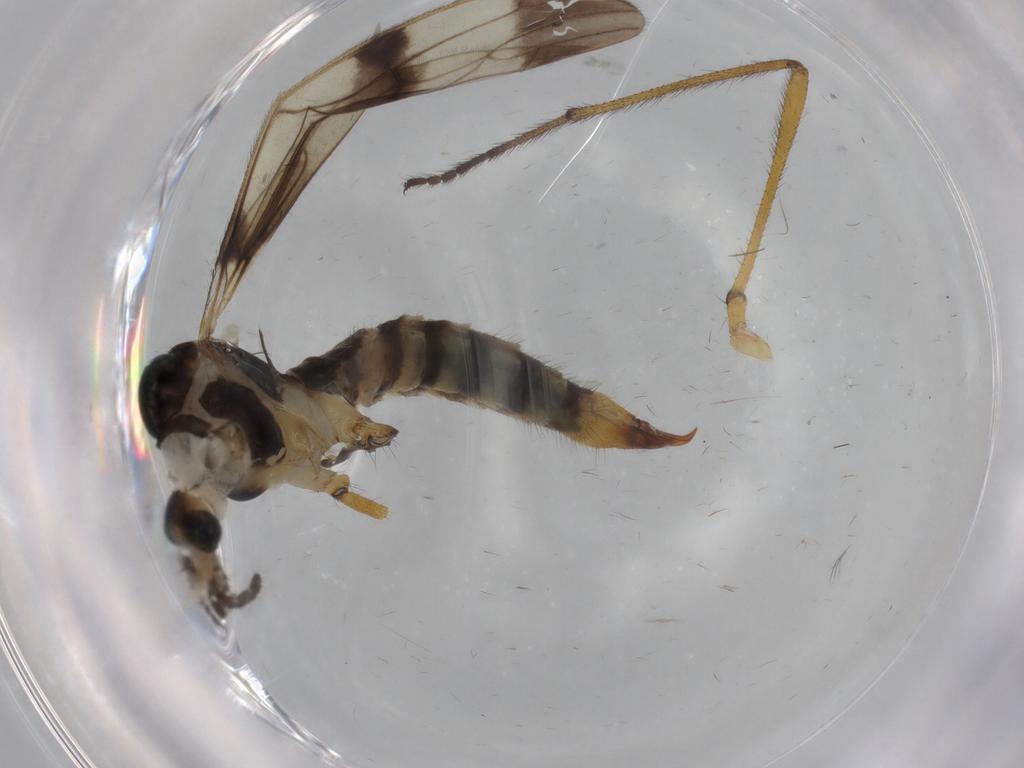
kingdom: Animalia
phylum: Arthropoda
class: Insecta
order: Diptera
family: Limoniidae
